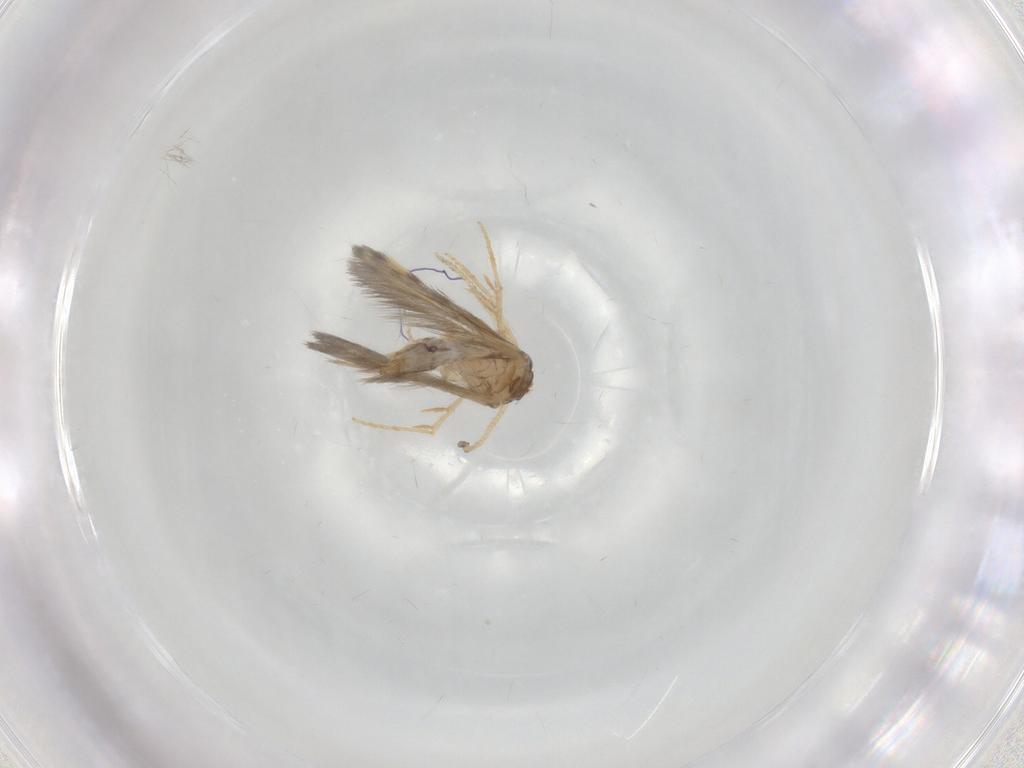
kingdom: Animalia
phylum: Arthropoda
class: Insecta
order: Trichoptera
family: Hydroptilidae
